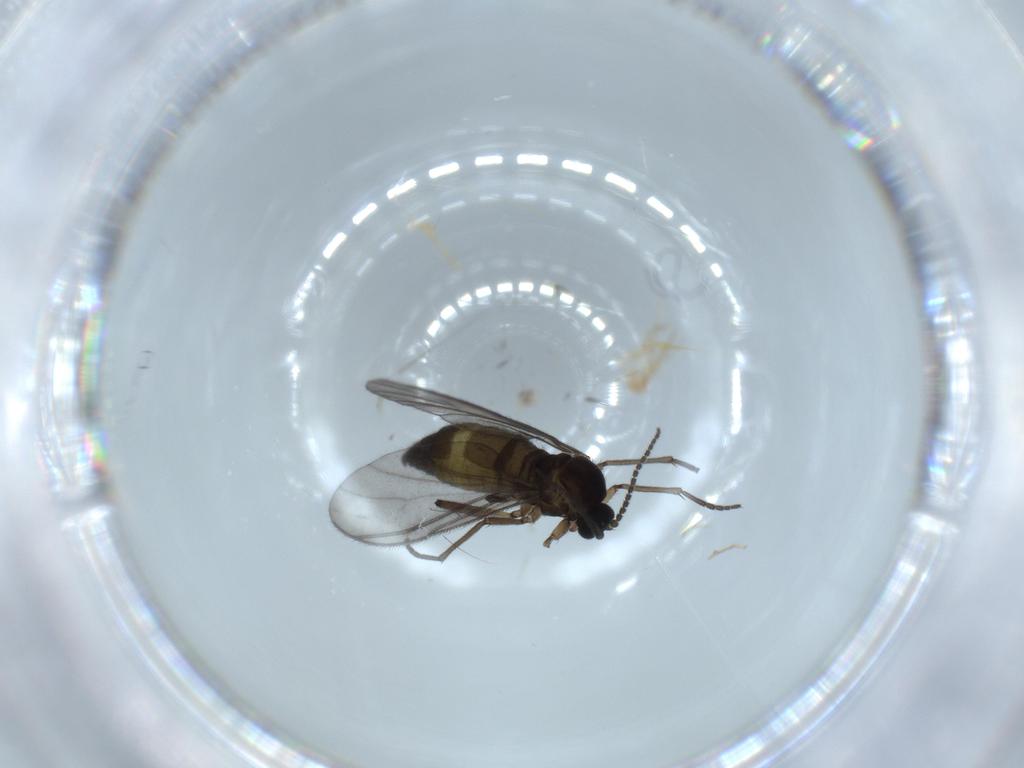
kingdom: Animalia
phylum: Arthropoda
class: Insecta
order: Diptera
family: Sciaridae
